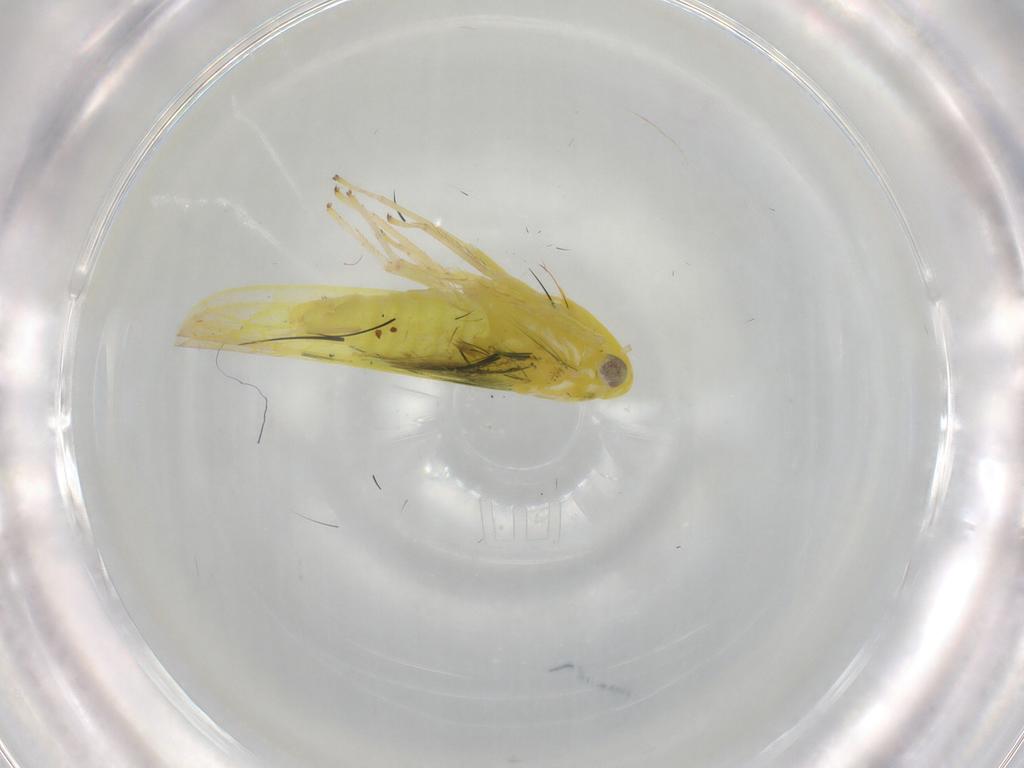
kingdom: Animalia
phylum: Arthropoda
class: Insecta
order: Hemiptera
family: Cicadellidae
